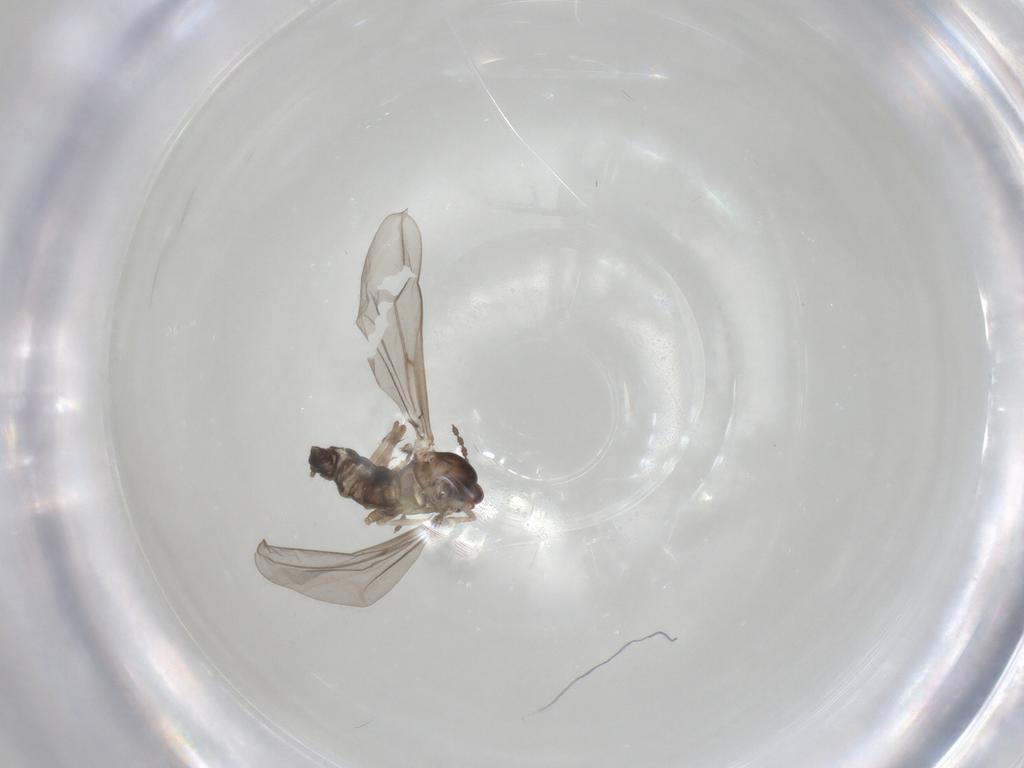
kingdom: Animalia
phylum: Arthropoda
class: Insecta
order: Diptera
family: Cecidomyiidae
